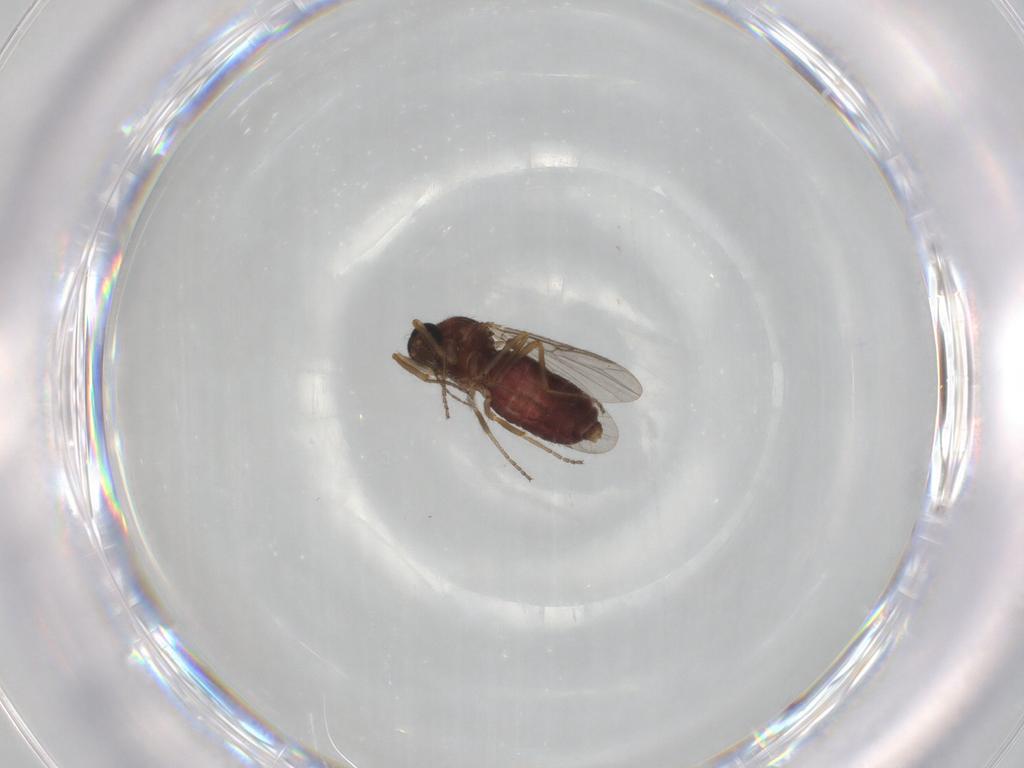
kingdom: Animalia
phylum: Arthropoda
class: Insecta
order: Diptera
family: Ceratopogonidae
